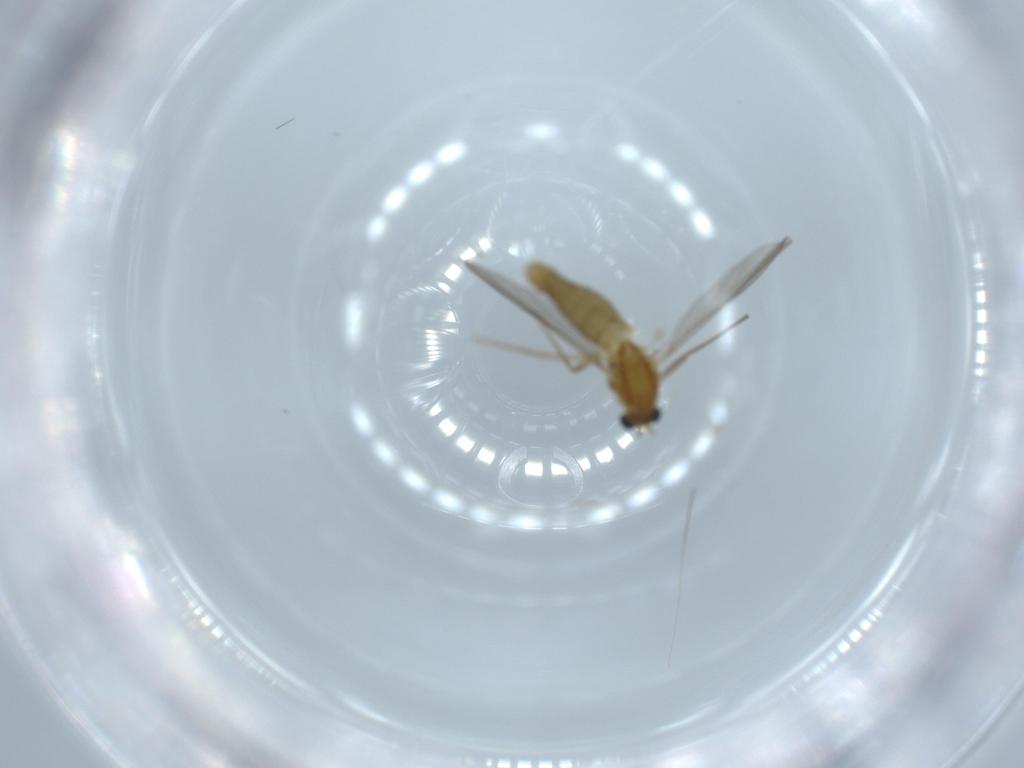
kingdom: Animalia
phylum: Arthropoda
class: Insecta
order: Diptera
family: Chironomidae
